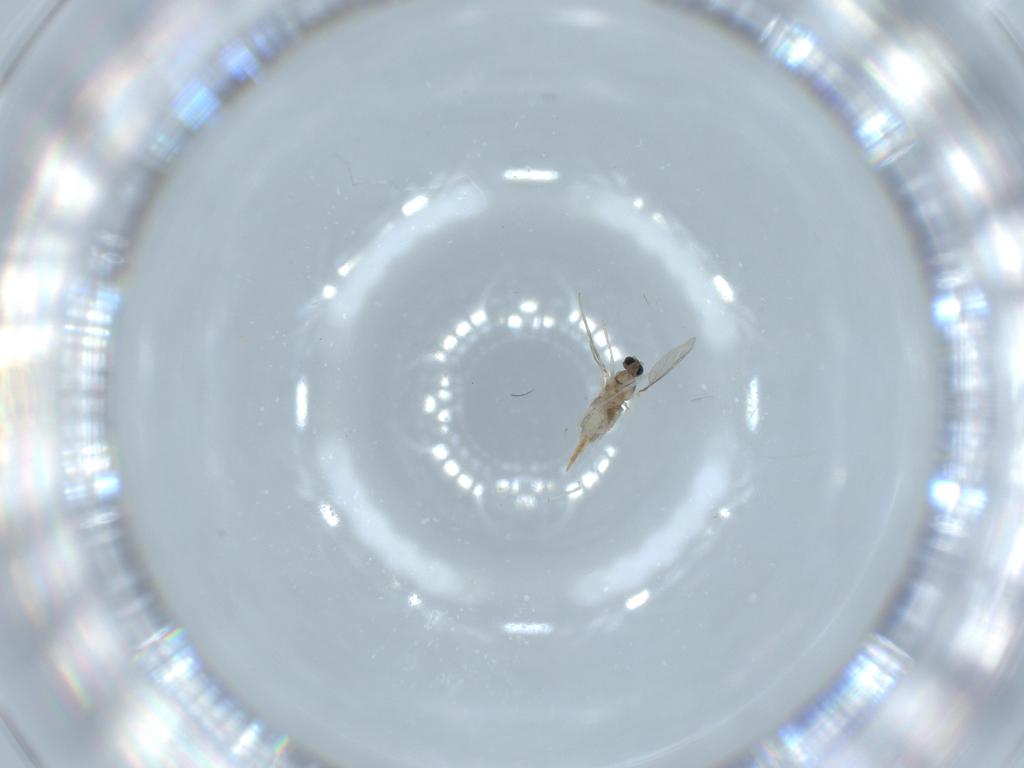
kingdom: Animalia
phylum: Arthropoda
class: Insecta
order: Diptera
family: Cecidomyiidae
